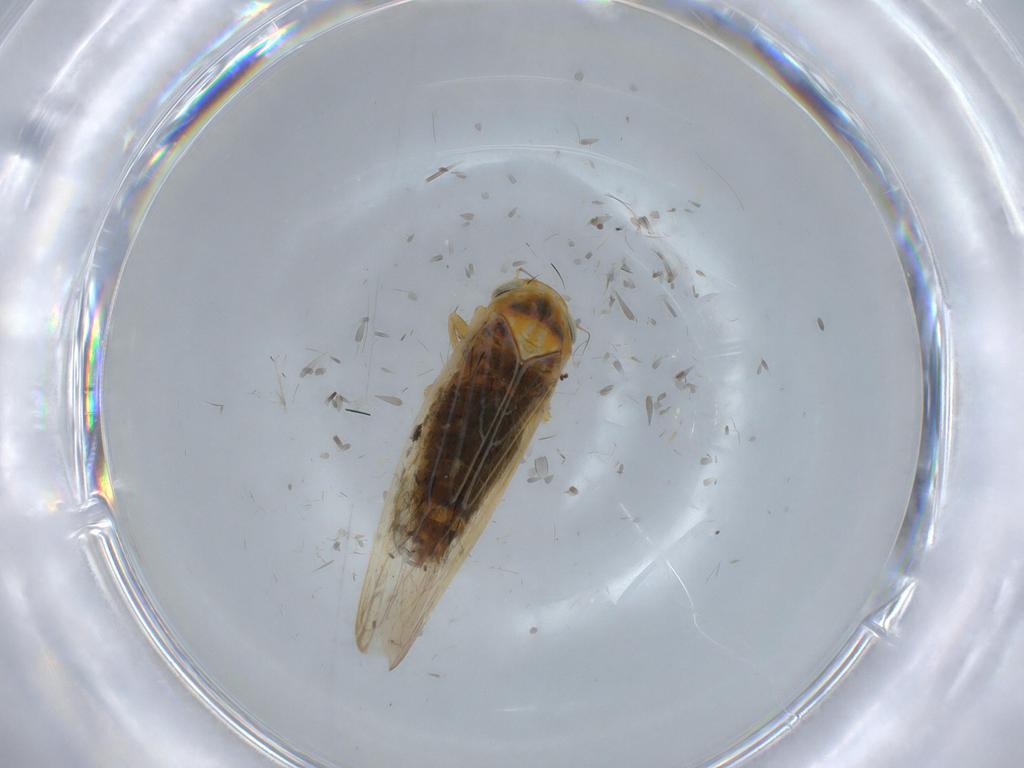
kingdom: Animalia
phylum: Arthropoda
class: Insecta
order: Hemiptera
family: Cicadellidae
